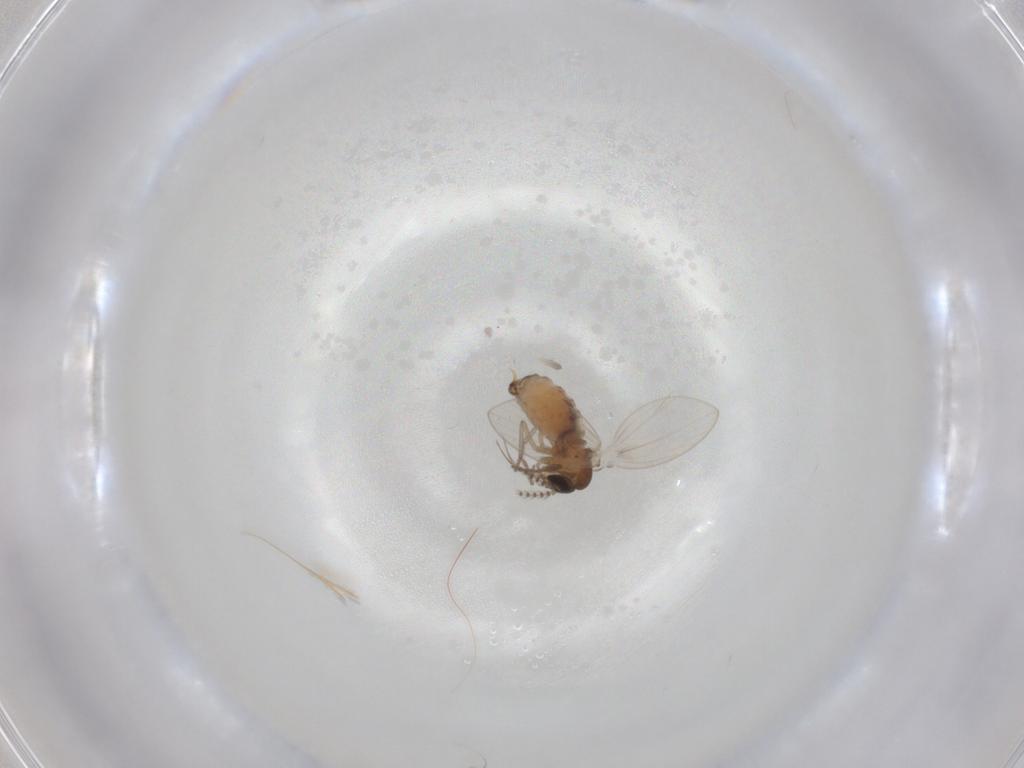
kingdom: Animalia
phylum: Arthropoda
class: Insecta
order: Diptera
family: Psychodidae
